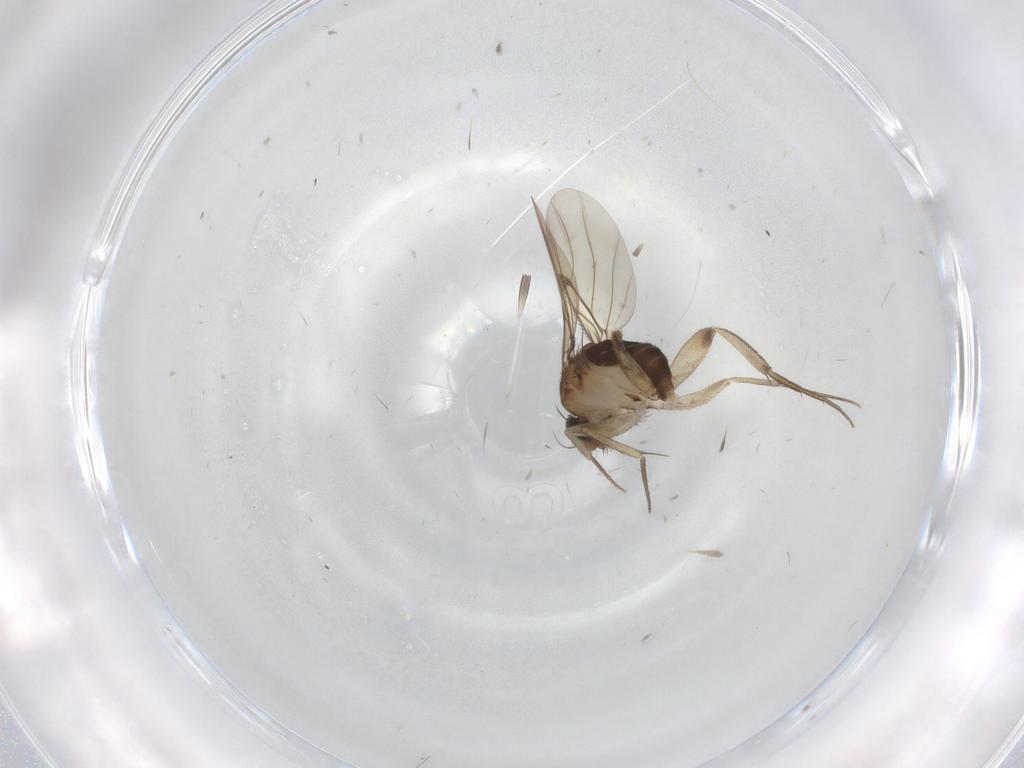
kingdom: Animalia
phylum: Arthropoda
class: Insecta
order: Diptera
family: Phoridae
